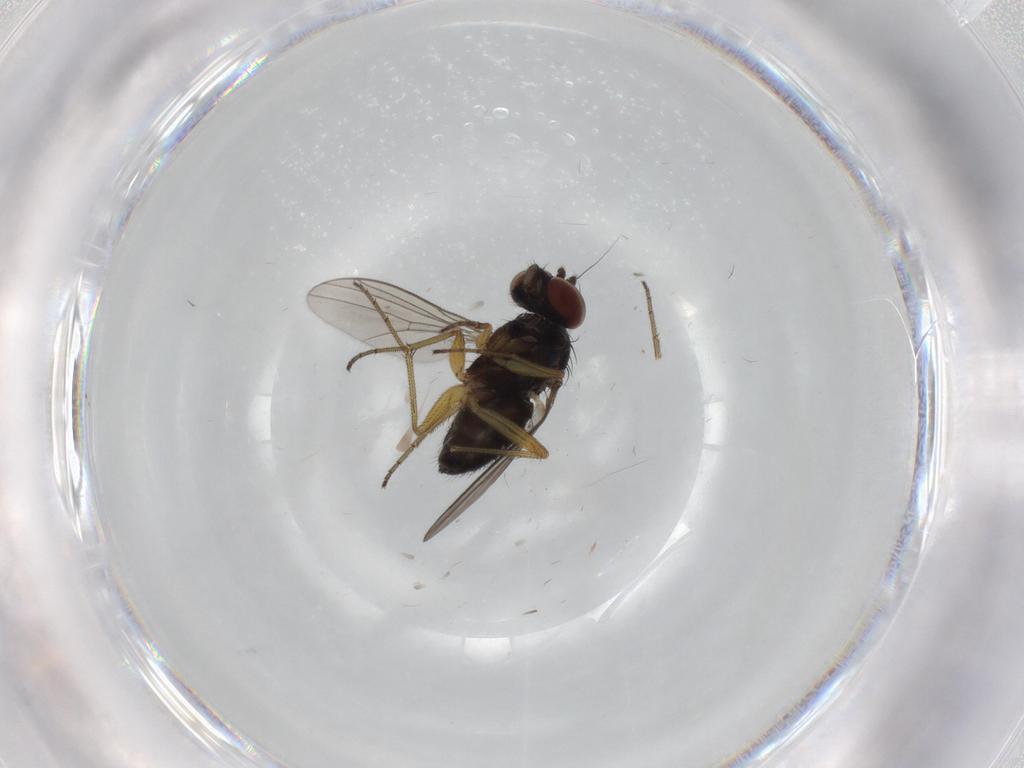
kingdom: Animalia
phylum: Arthropoda
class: Insecta
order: Diptera
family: Dolichopodidae
